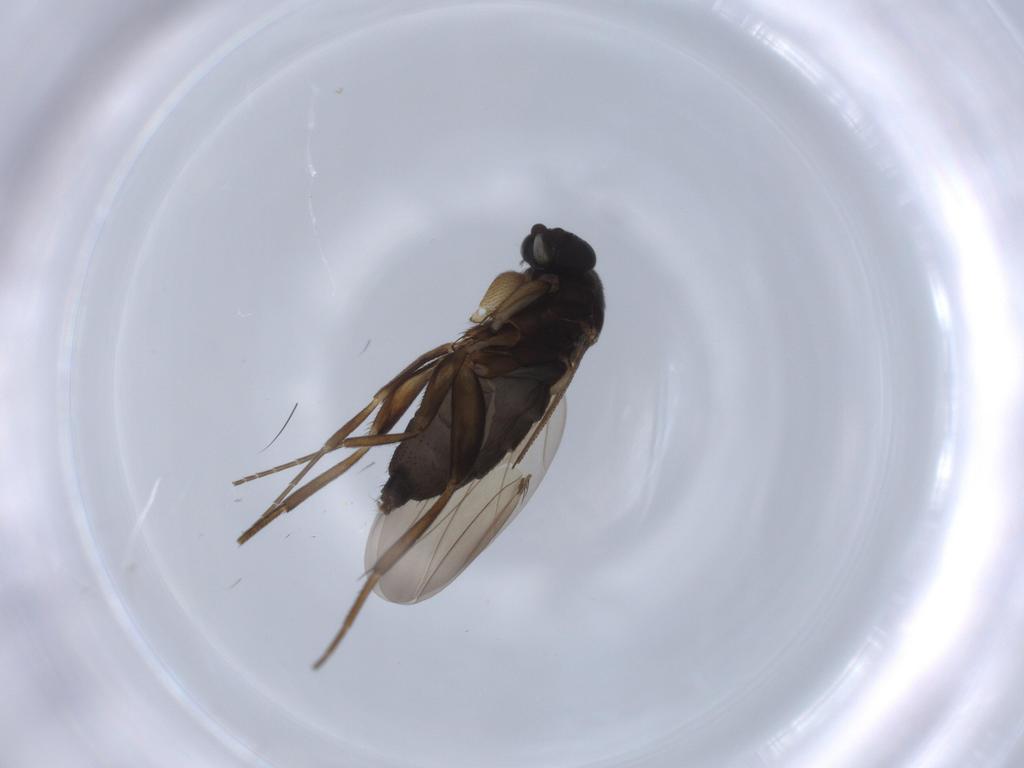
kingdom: Animalia
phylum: Arthropoda
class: Insecta
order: Diptera
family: Phoridae
